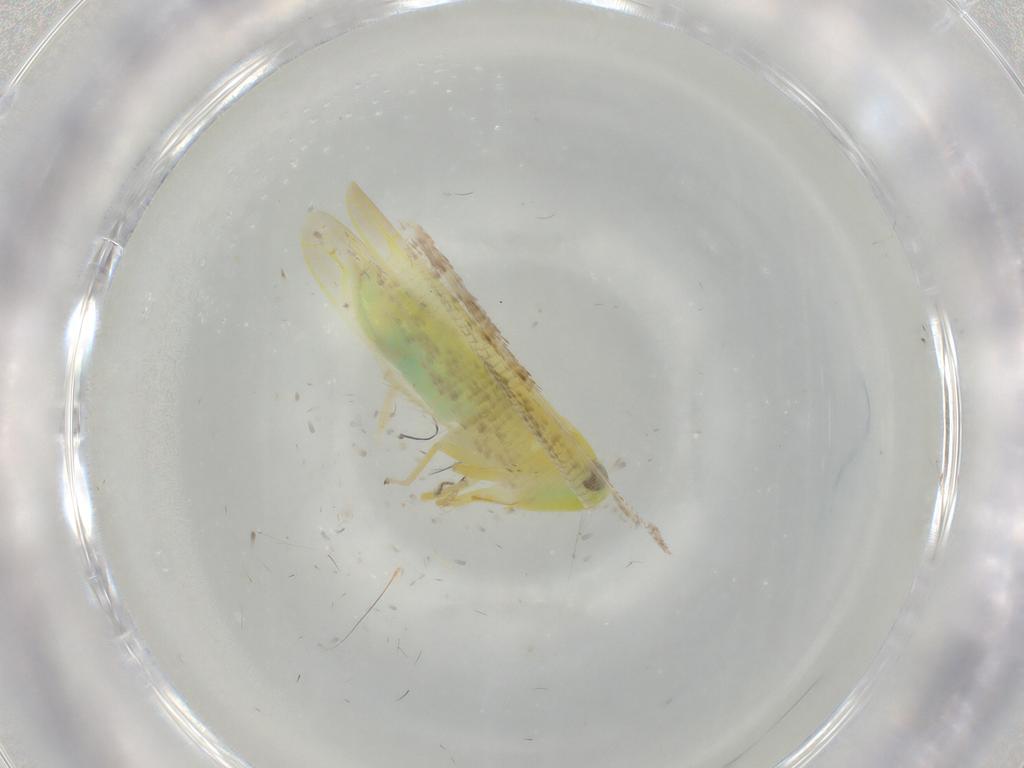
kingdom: Animalia
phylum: Arthropoda
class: Insecta
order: Hemiptera
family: Cicadellidae
